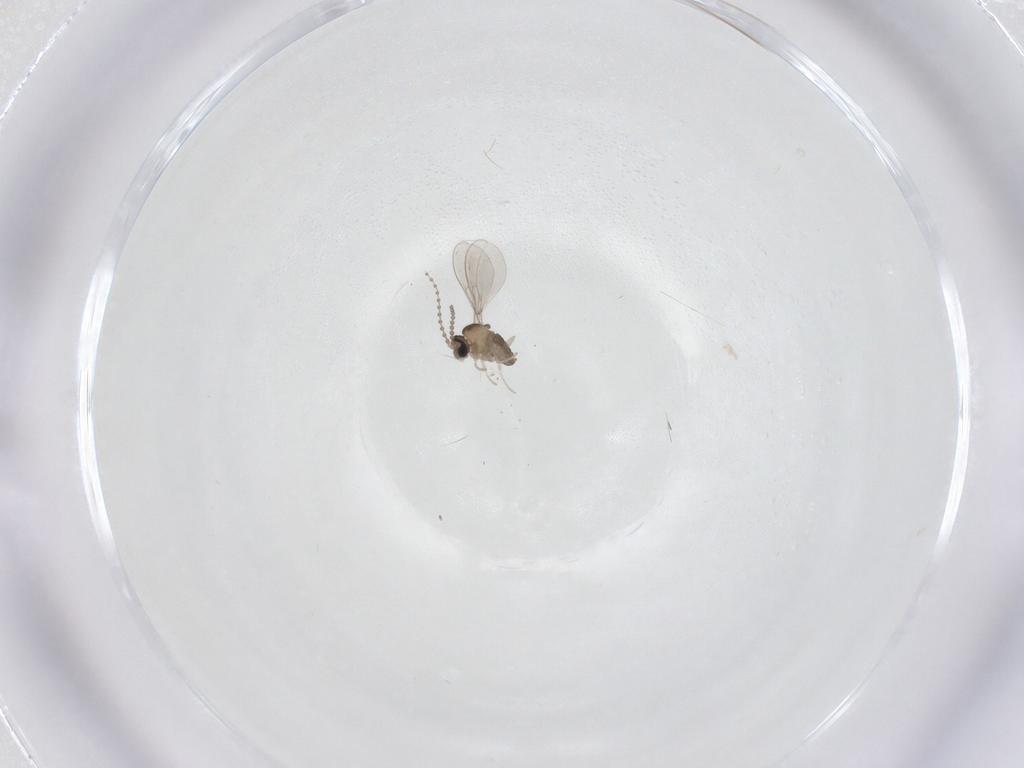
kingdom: Animalia
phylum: Arthropoda
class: Insecta
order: Diptera
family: Cecidomyiidae
